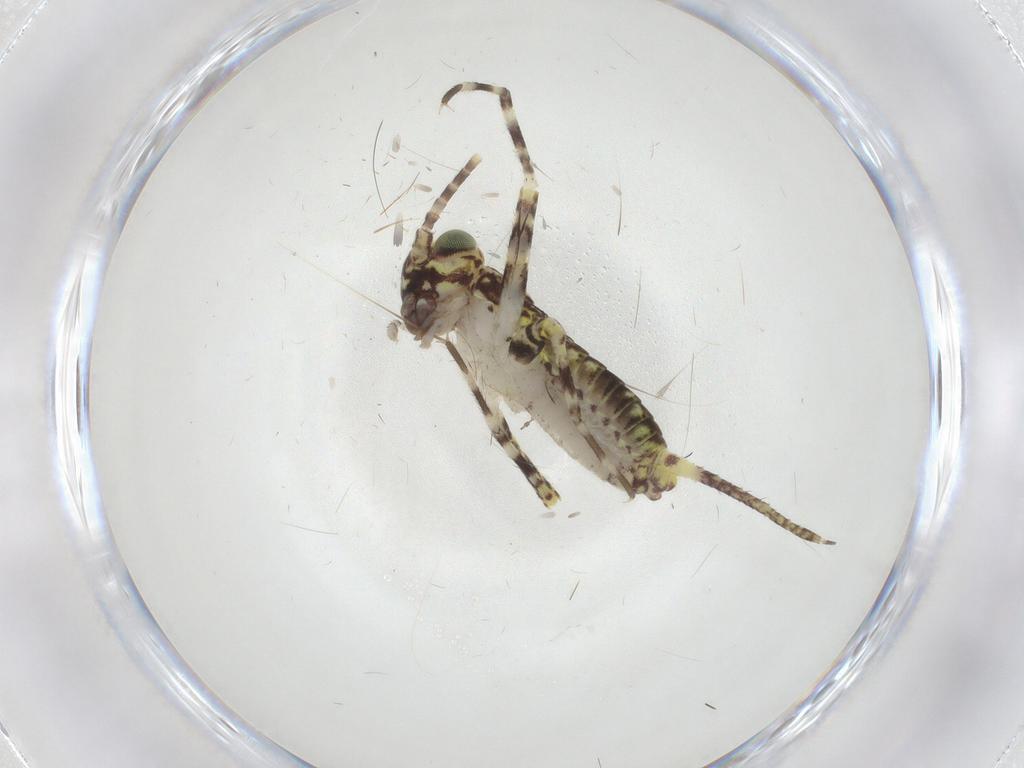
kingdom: Animalia
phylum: Arthropoda
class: Insecta
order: Orthoptera
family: Gryllidae
